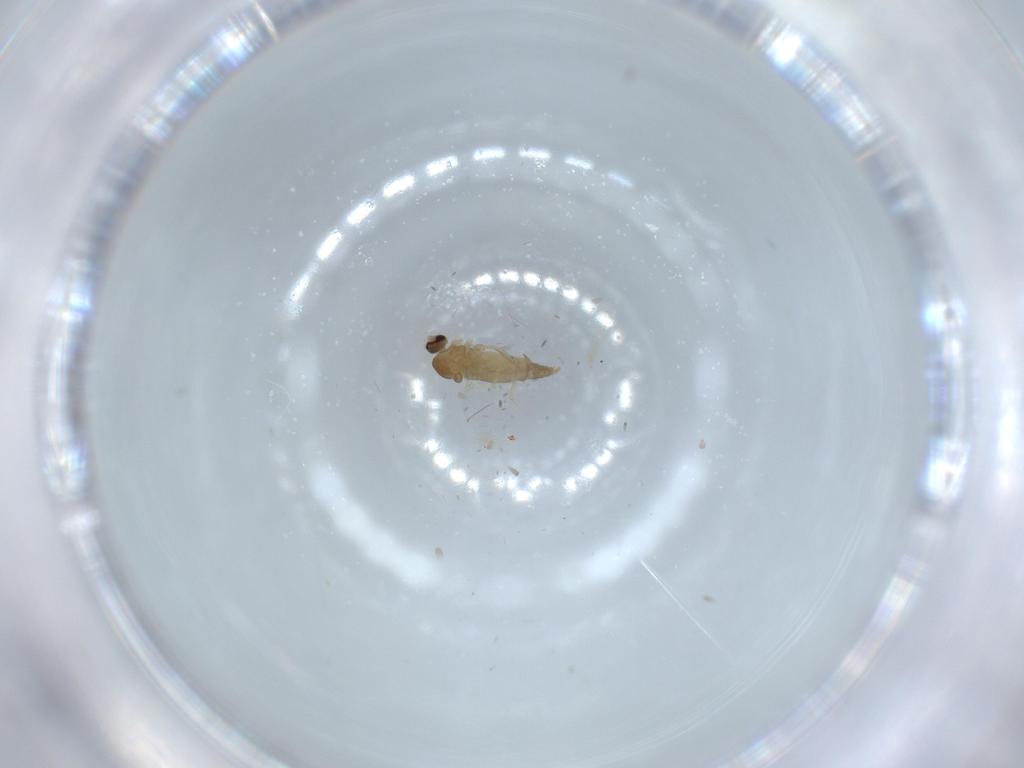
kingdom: Animalia
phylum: Arthropoda
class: Insecta
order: Diptera
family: Cecidomyiidae
